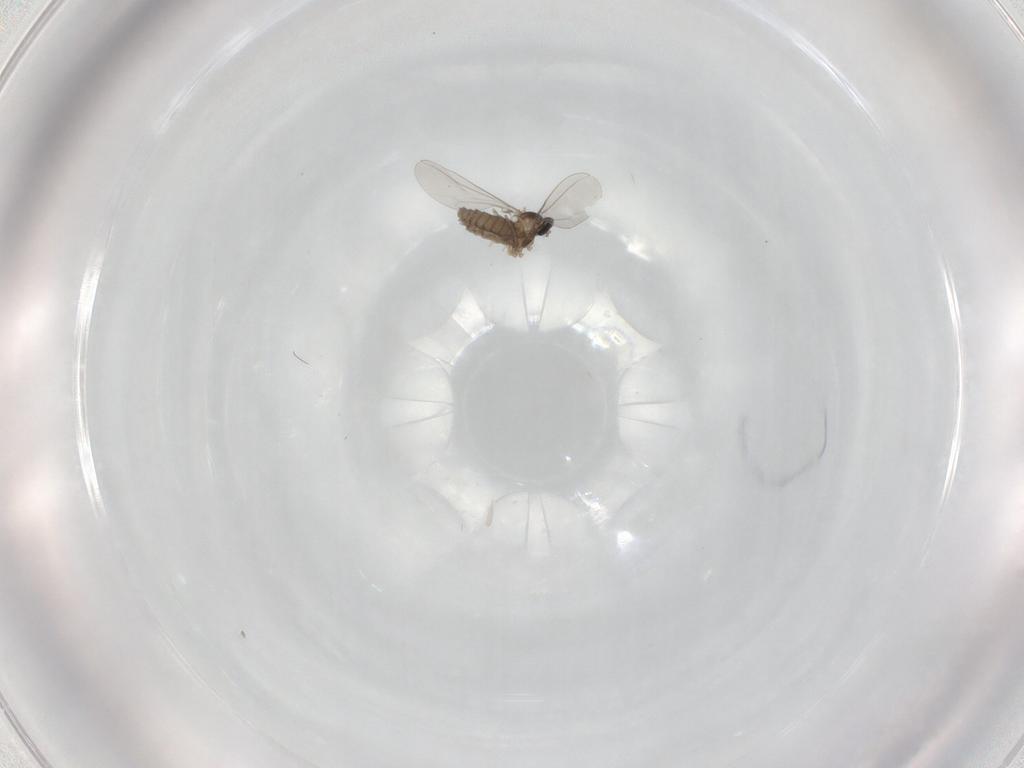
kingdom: Animalia
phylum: Arthropoda
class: Insecta
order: Diptera
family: Cecidomyiidae
